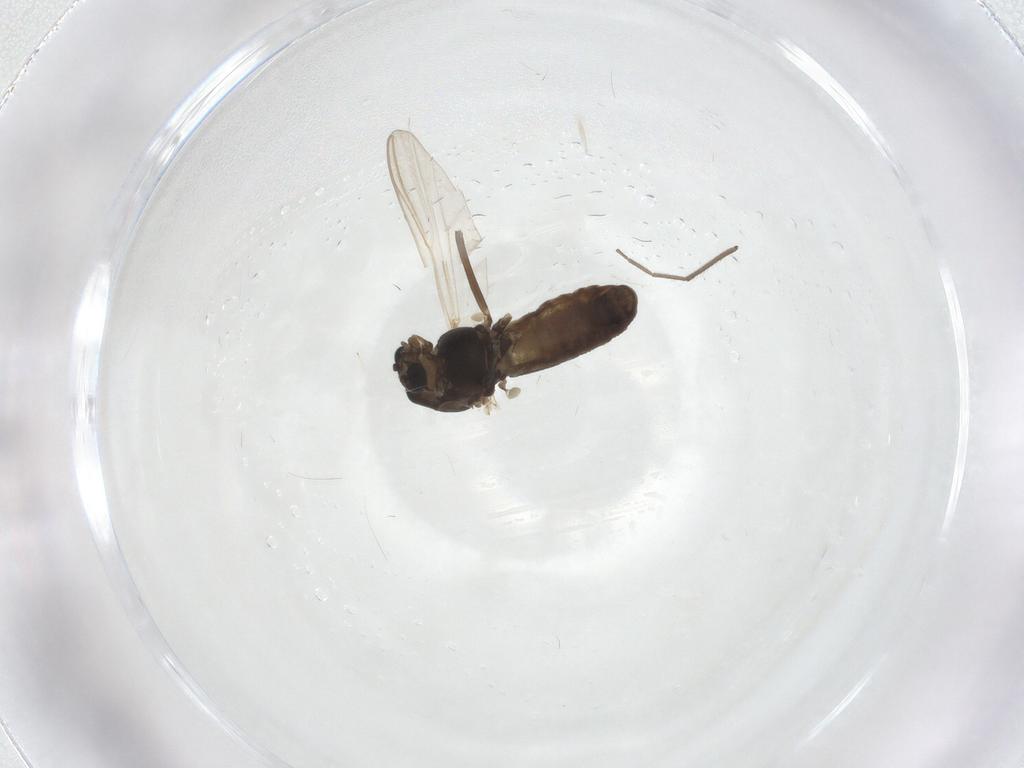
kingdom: Animalia
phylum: Arthropoda
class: Insecta
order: Diptera
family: Chironomidae
